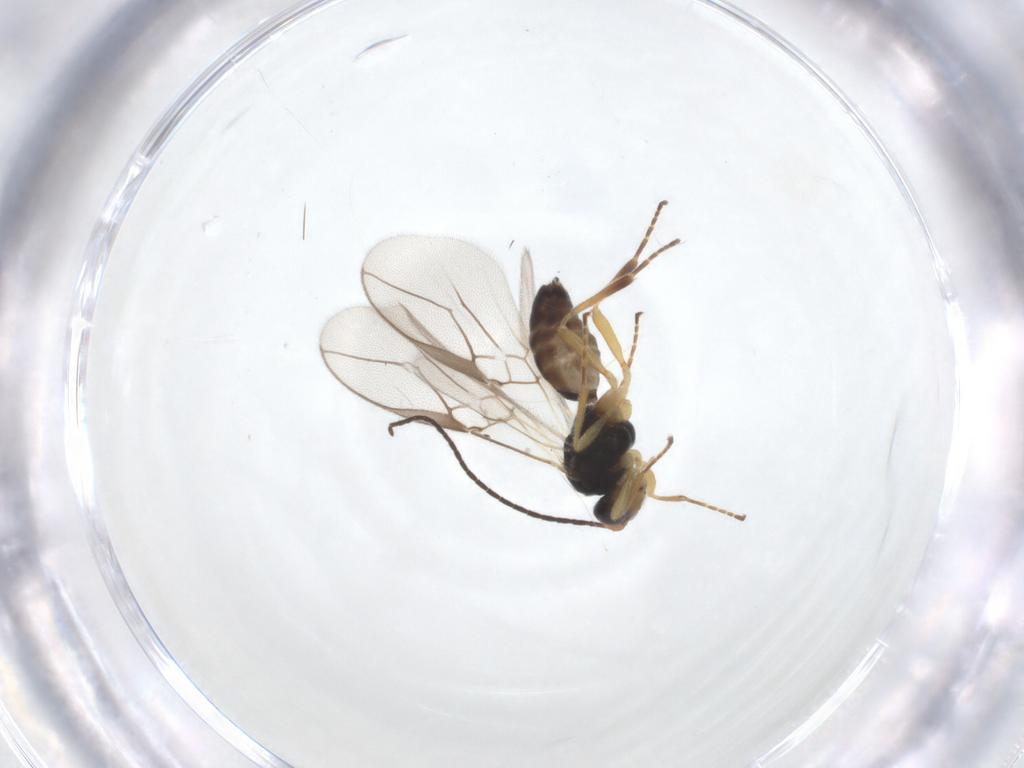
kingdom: Animalia
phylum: Arthropoda
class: Insecta
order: Hymenoptera
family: Braconidae
